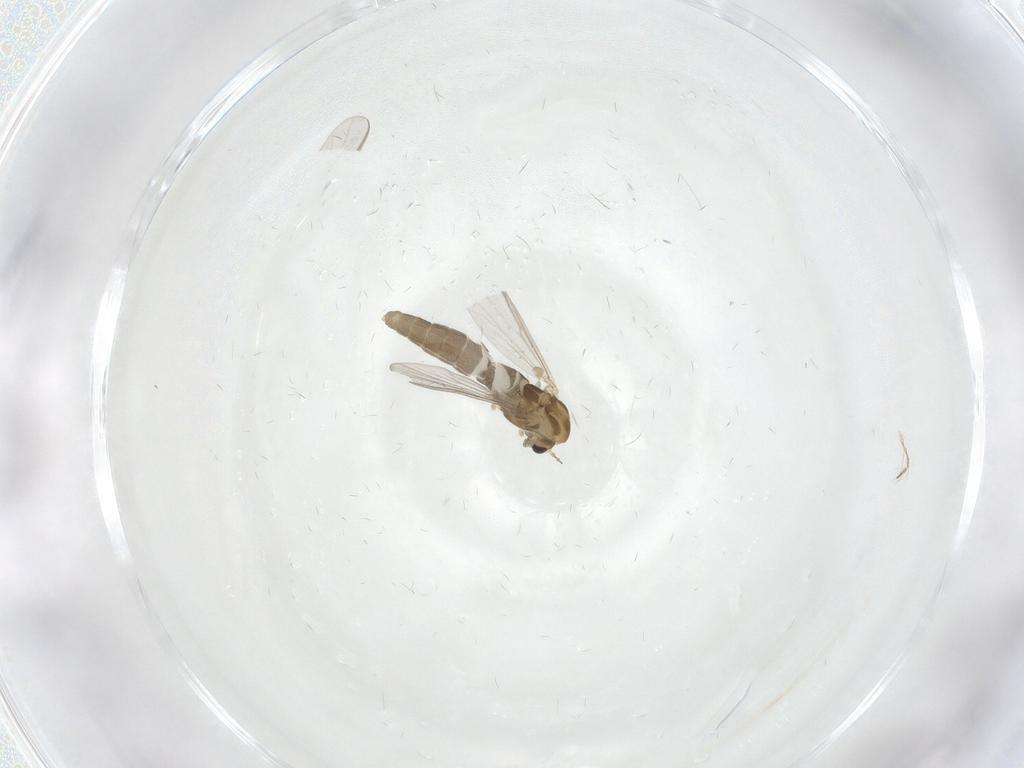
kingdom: Animalia
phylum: Arthropoda
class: Insecta
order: Diptera
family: Chironomidae
